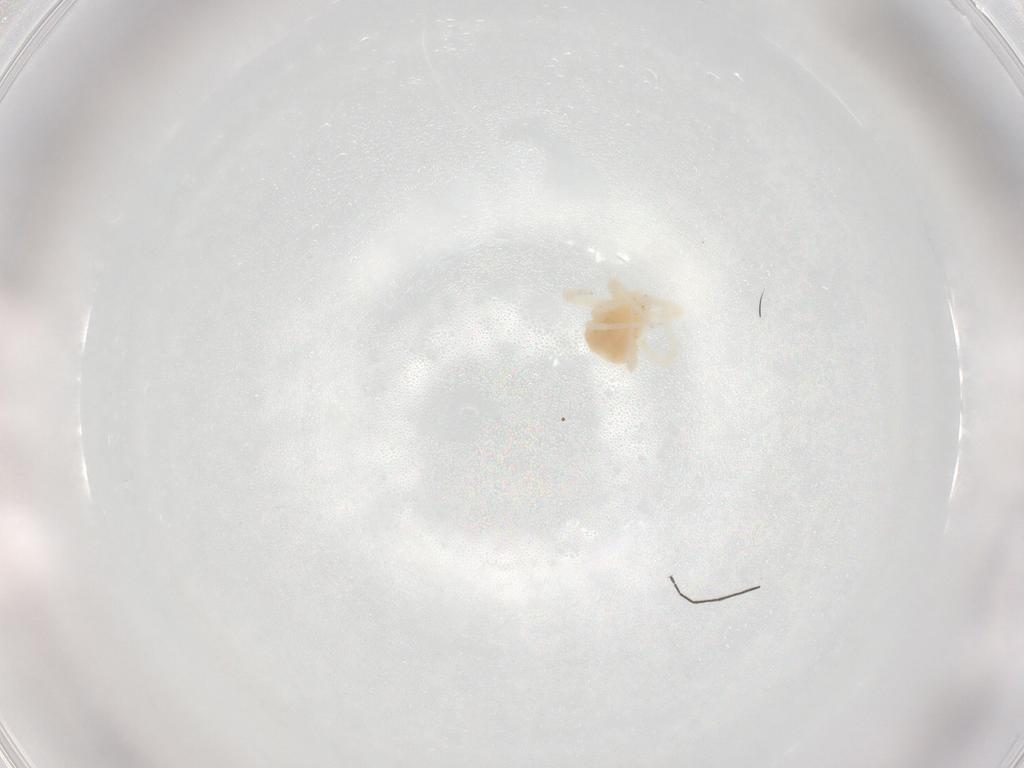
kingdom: Animalia
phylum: Arthropoda
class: Arachnida
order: Trombidiformes
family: Anystidae
